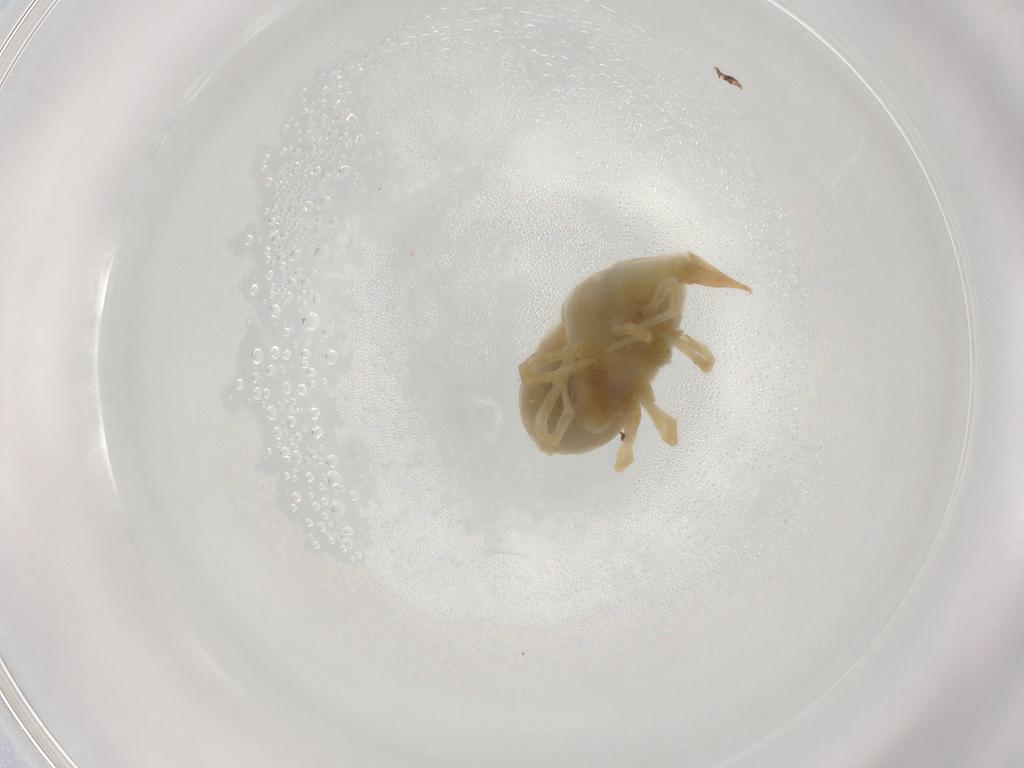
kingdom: Animalia
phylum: Arthropoda
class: Arachnida
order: Trombidiformes
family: Bdellidae
